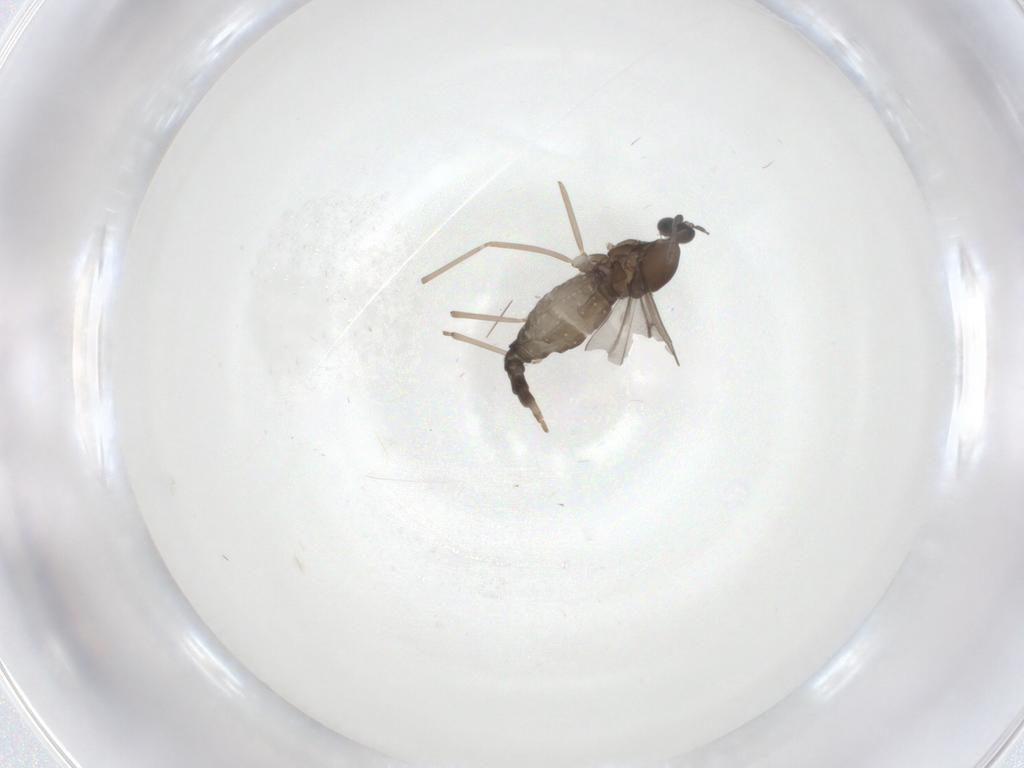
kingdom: Animalia
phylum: Arthropoda
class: Insecta
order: Diptera
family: Cecidomyiidae
